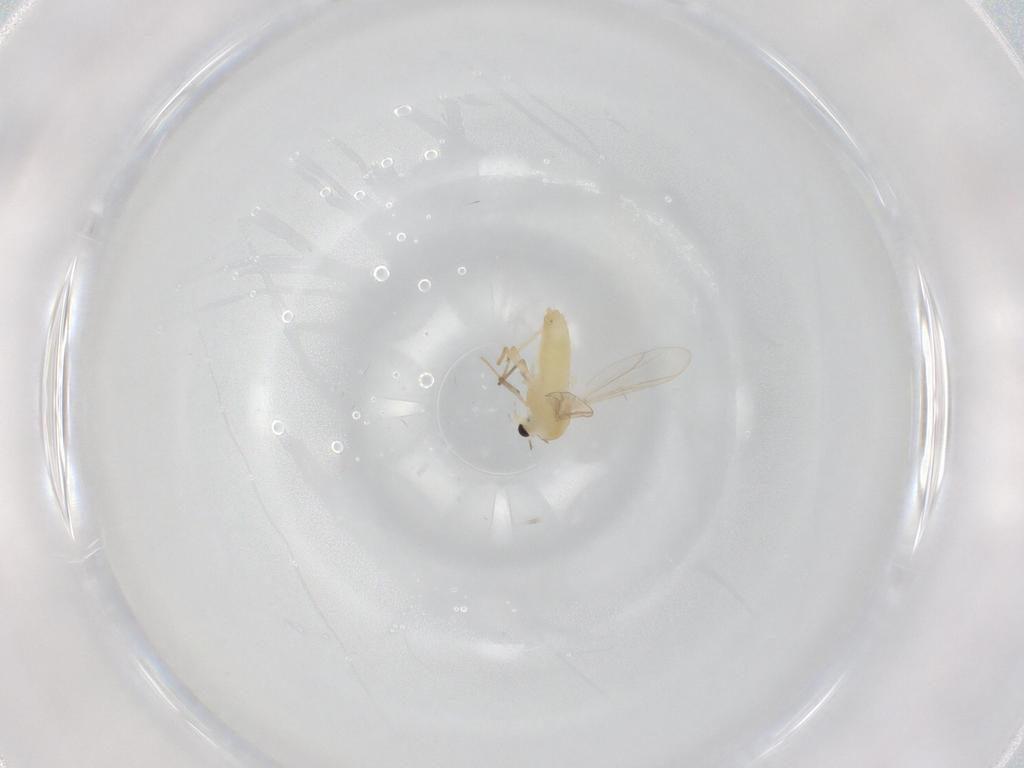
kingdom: Animalia
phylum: Arthropoda
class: Insecta
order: Diptera
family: Chironomidae
